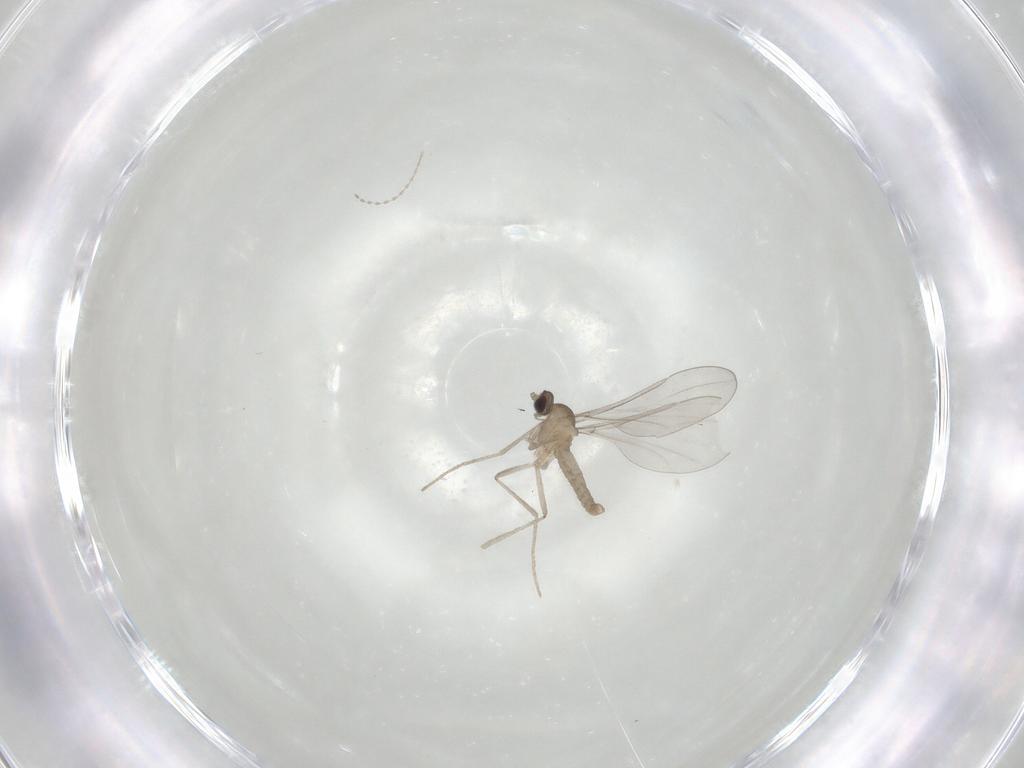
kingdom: Animalia
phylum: Arthropoda
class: Insecta
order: Diptera
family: Cecidomyiidae
